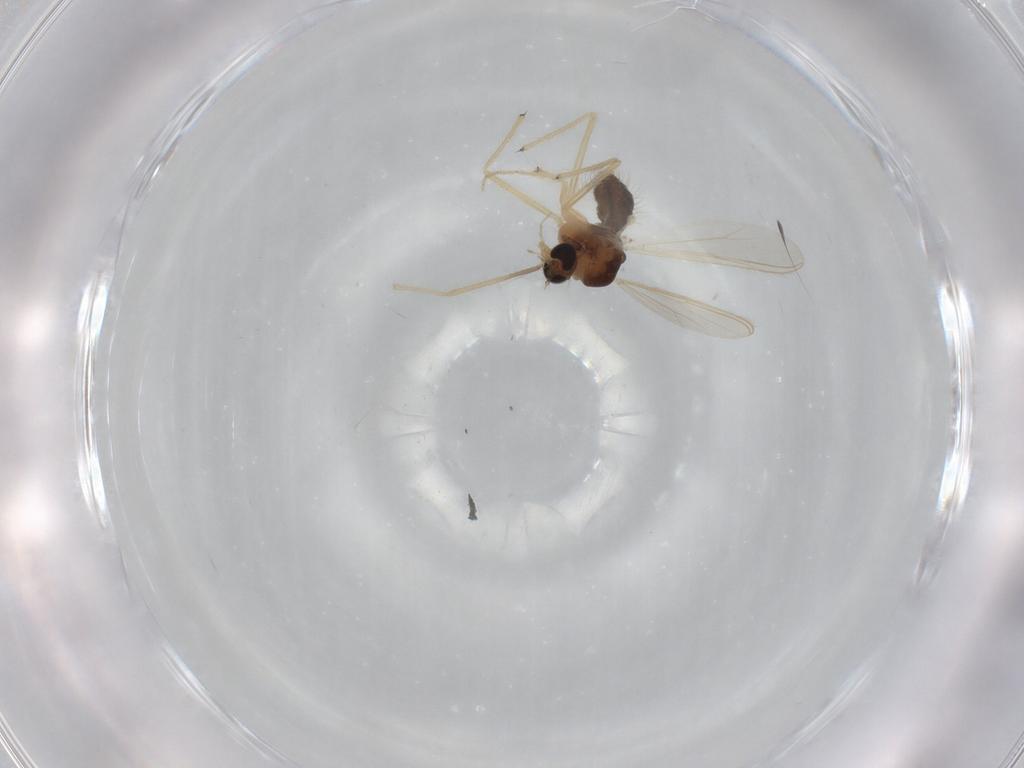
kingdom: Animalia
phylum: Arthropoda
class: Insecta
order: Diptera
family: Chironomidae
